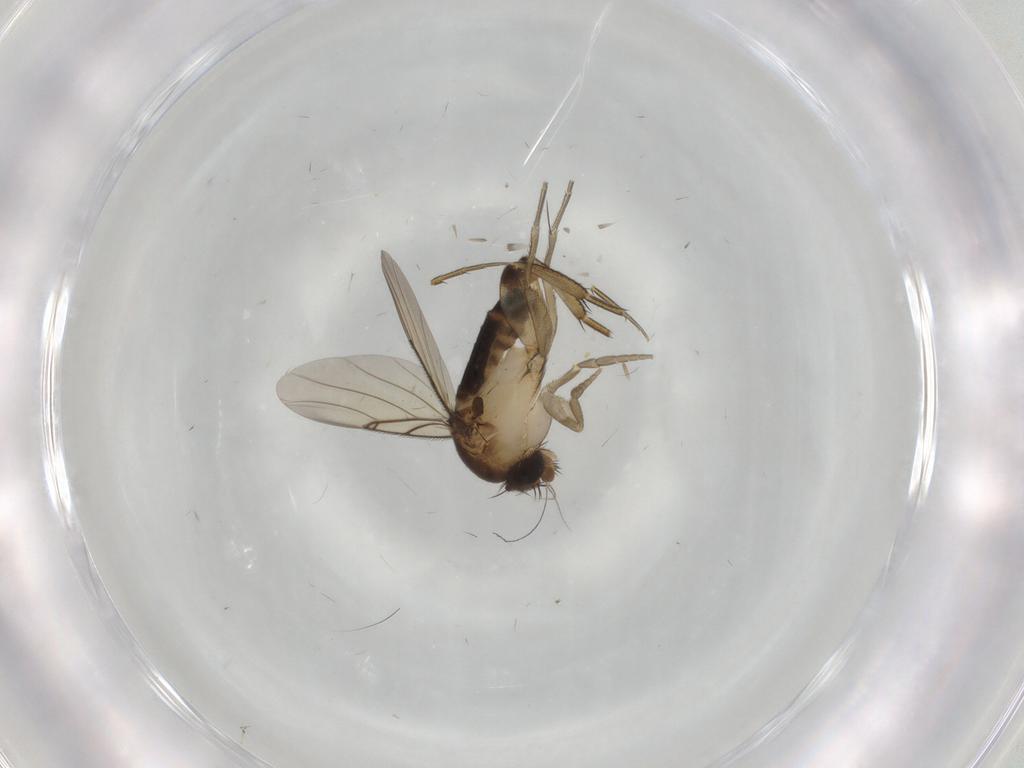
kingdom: Animalia
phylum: Arthropoda
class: Insecta
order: Diptera
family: Phoridae
